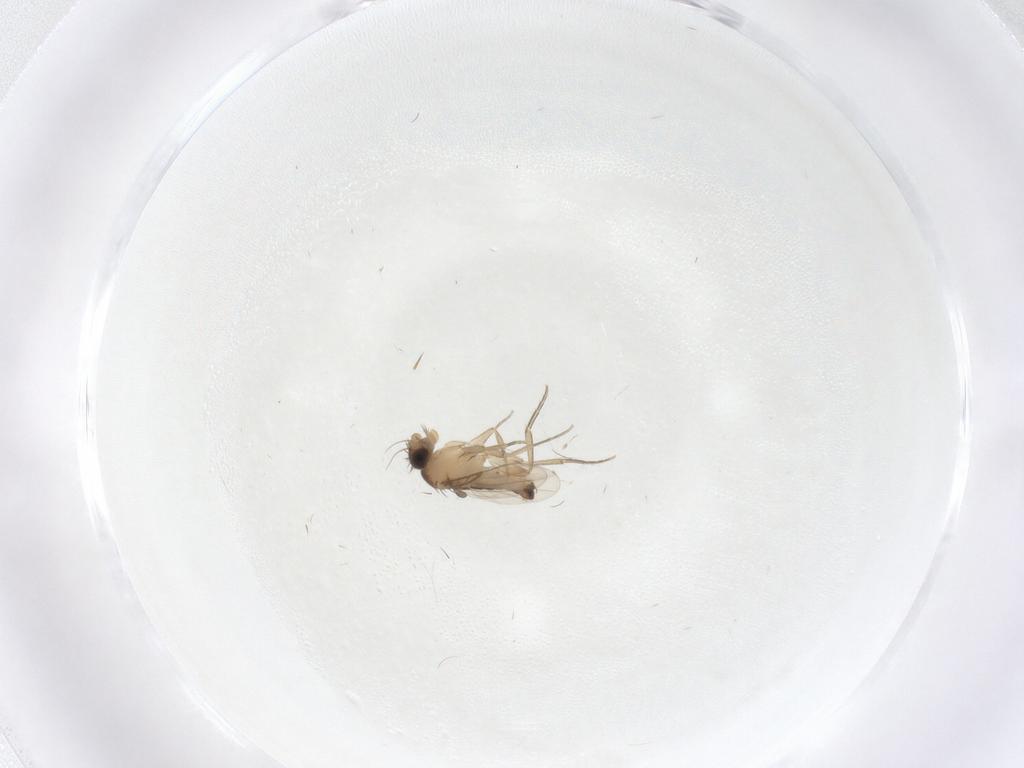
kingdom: Animalia
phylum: Arthropoda
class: Insecta
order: Diptera
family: Phoridae
